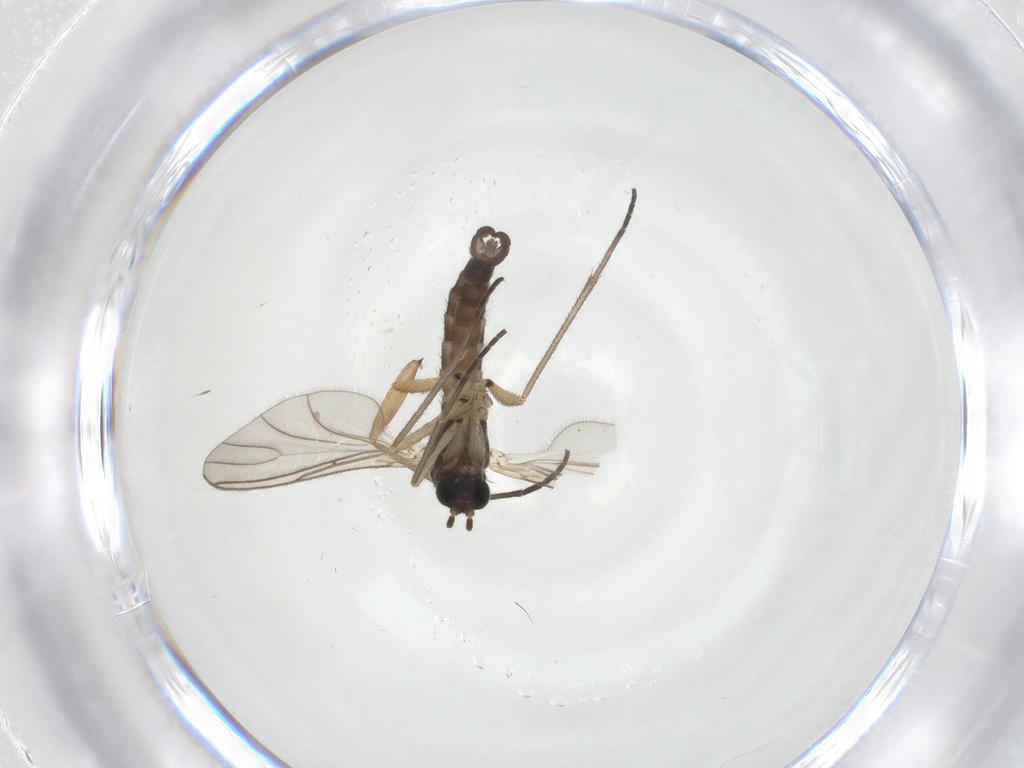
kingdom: Animalia
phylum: Arthropoda
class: Insecta
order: Diptera
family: Sciaridae
